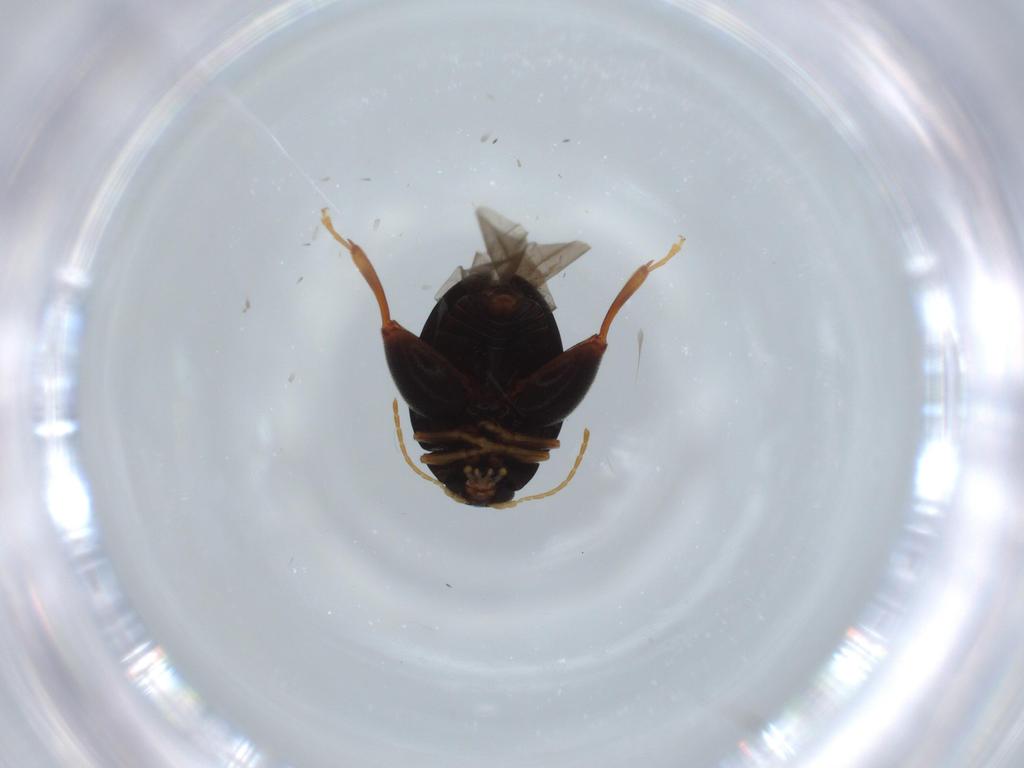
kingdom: Animalia
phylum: Arthropoda
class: Insecta
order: Coleoptera
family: Chrysomelidae
